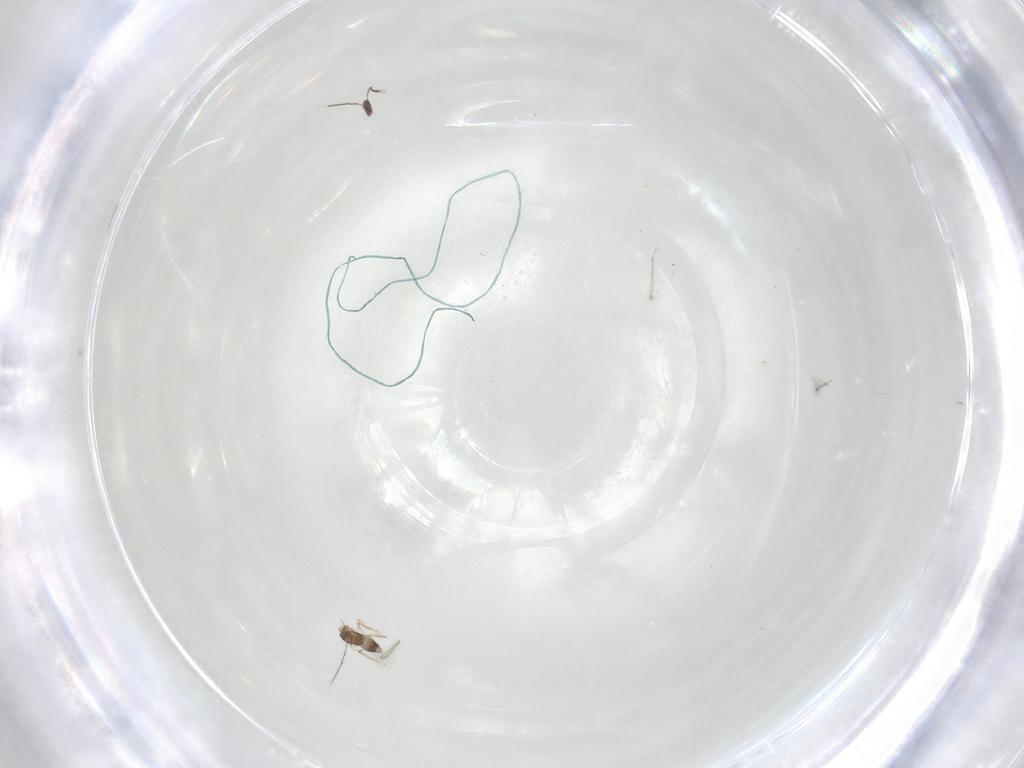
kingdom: Animalia
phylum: Arthropoda
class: Insecta
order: Hymenoptera
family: Mymaridae
